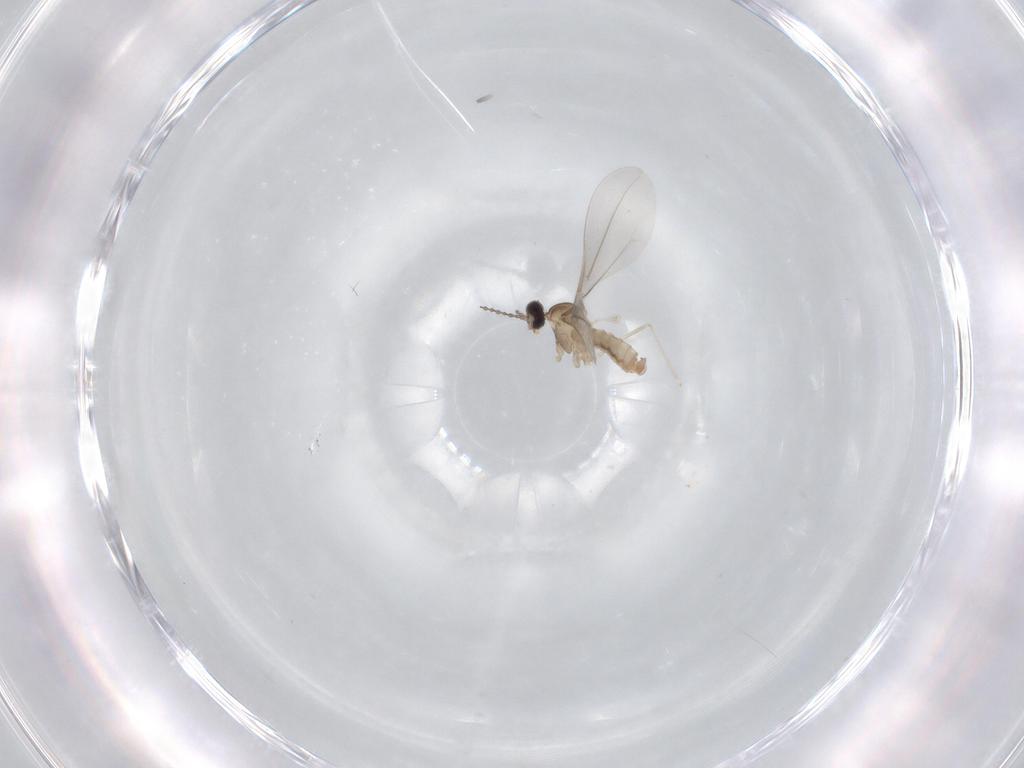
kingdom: Animalia
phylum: Arthropoda
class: Insecta
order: Diptera
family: Cecidomyiidae
